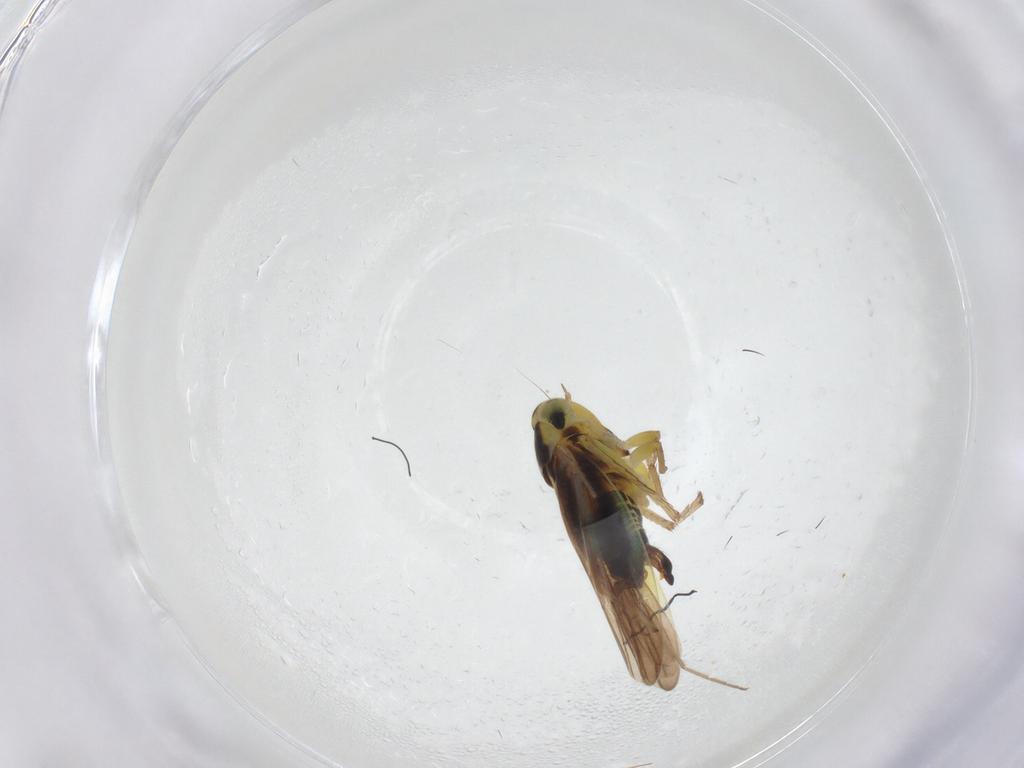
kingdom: Animalia
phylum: Arthropoda
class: Insecta
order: Hemiptera
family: Cicadellidae
